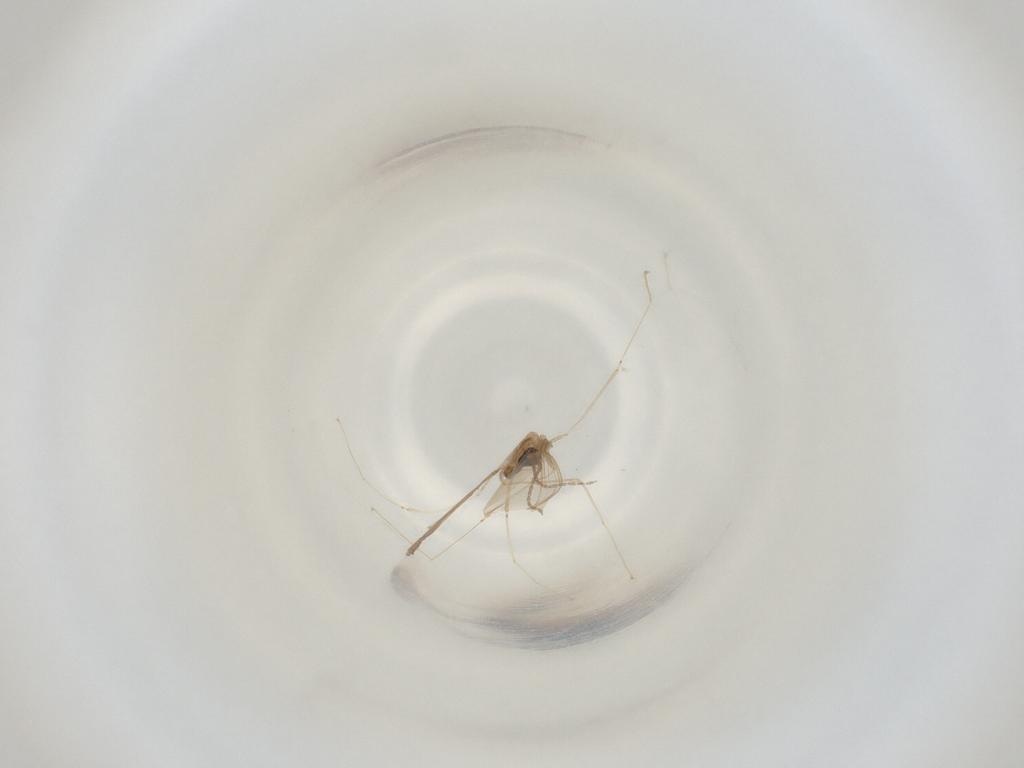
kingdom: Animalia
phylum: Arthropoda
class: Insecta
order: Diptera
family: Cecidomyiidae
